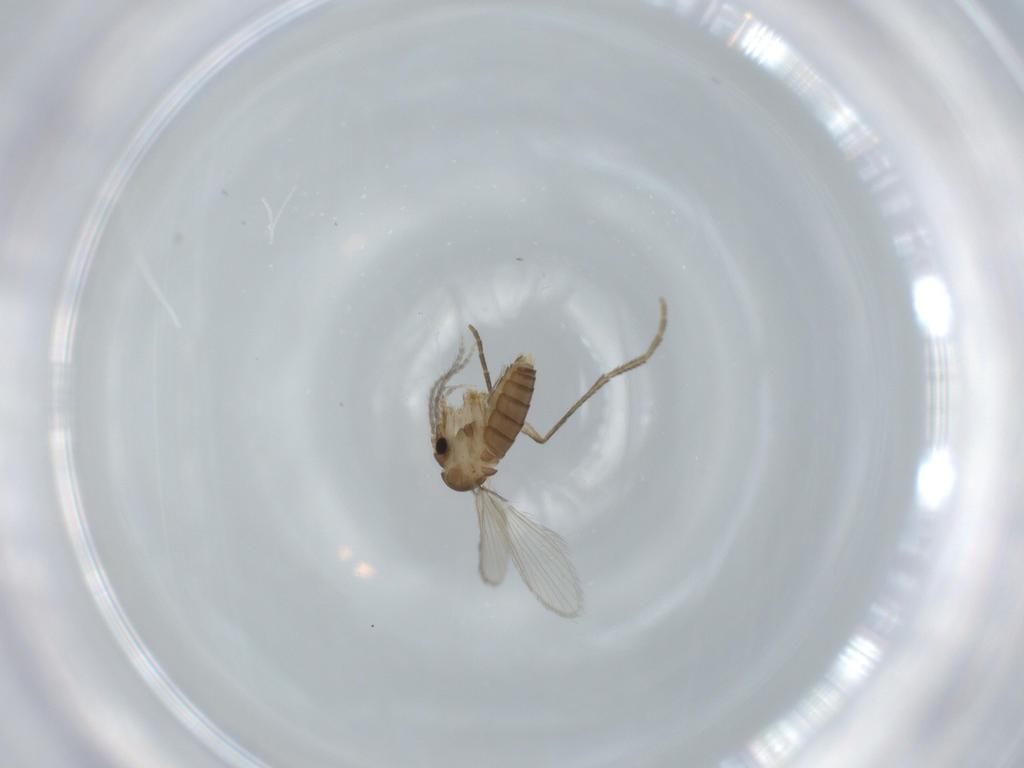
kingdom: Animalia
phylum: Arthropoda
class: Insecta
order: Diptera
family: Psychodidae
